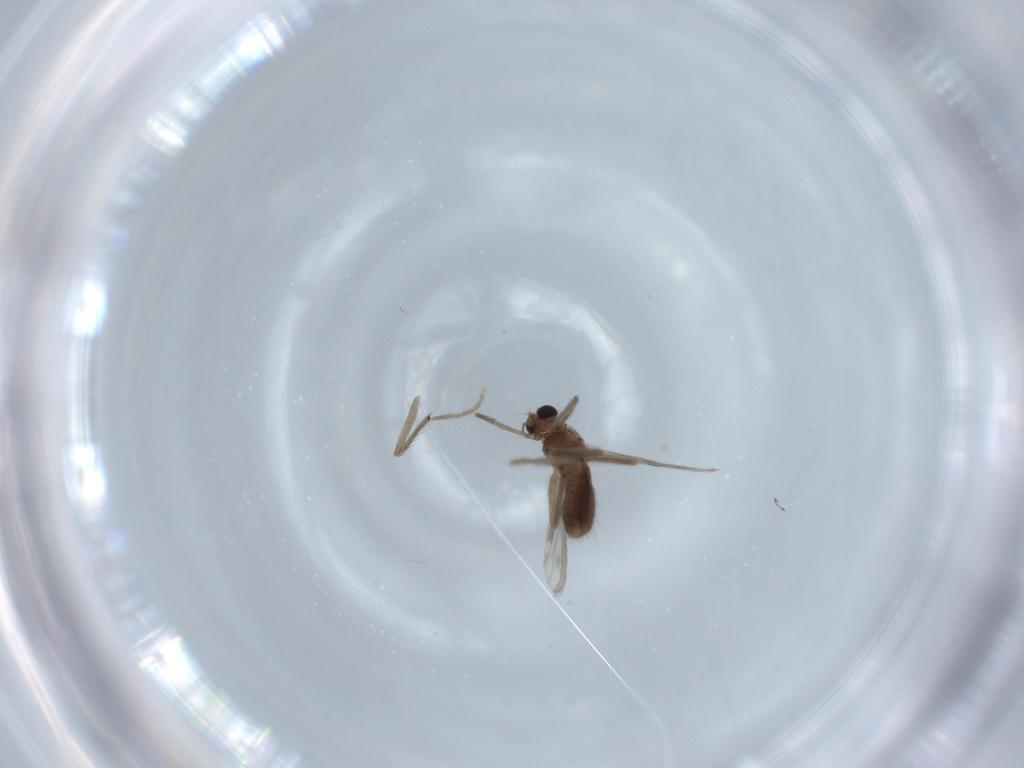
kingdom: Animalia
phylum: Arthropoda
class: Insecta
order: Diptera
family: Chironomidae
